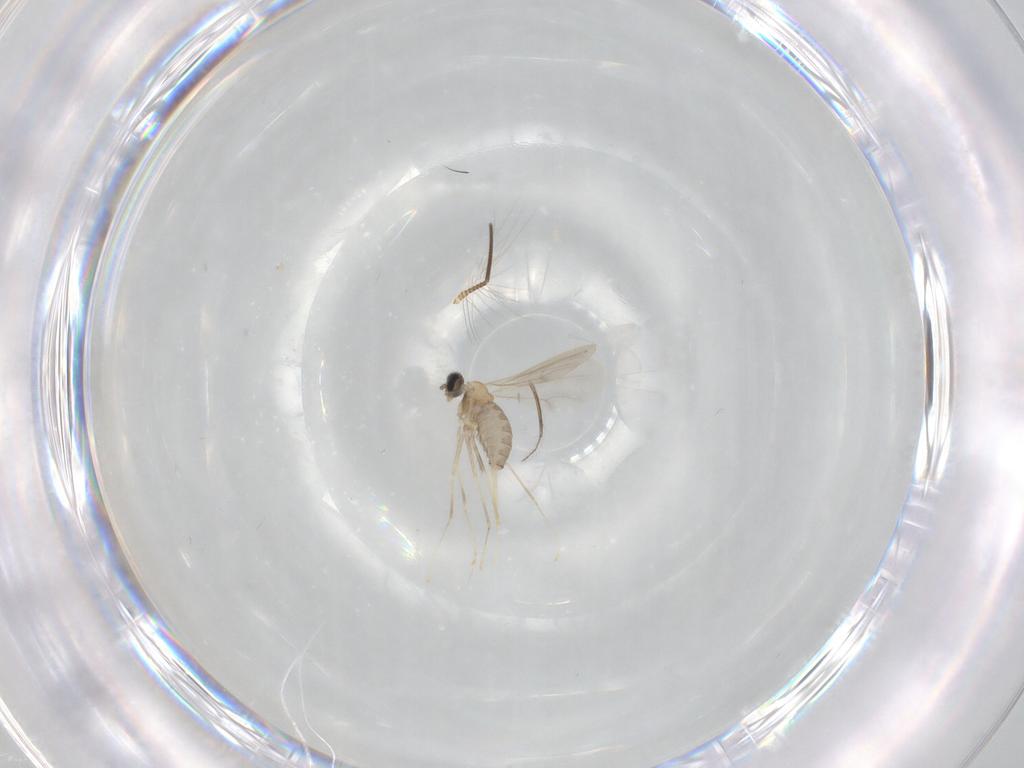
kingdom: Animalia
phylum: Arthropoda
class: Insecta
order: Diptera
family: Cecidomyiidae
